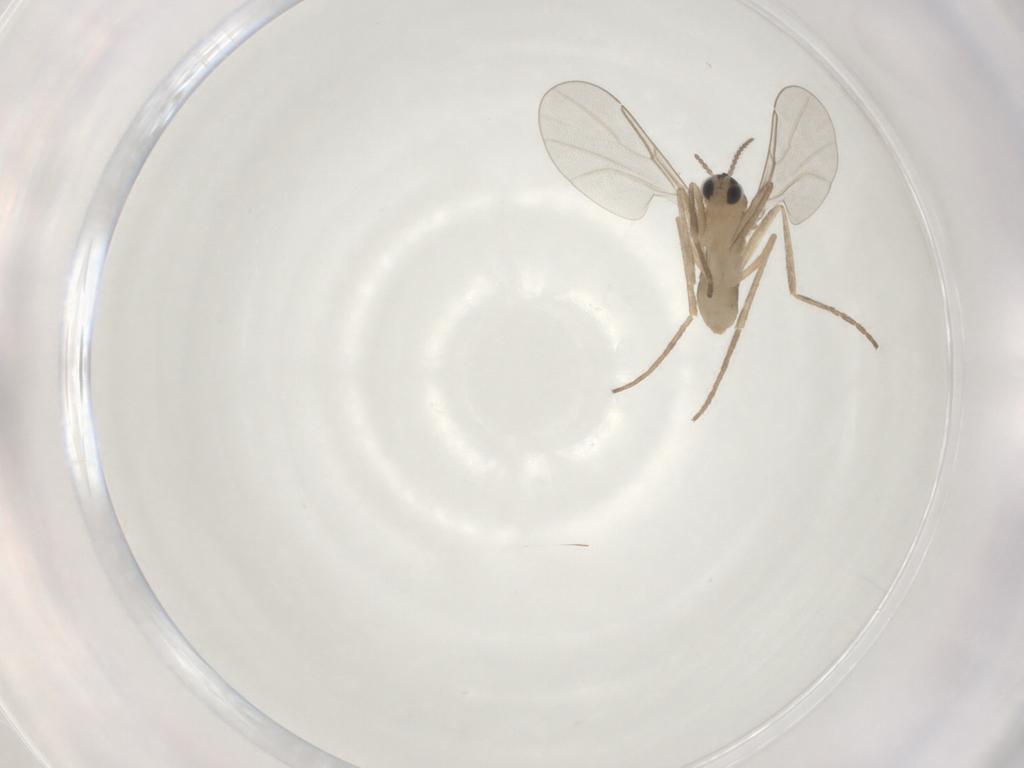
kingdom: Animalia
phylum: Arthropoda
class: Insecta
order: Diptera
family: Cecidomyiidae
